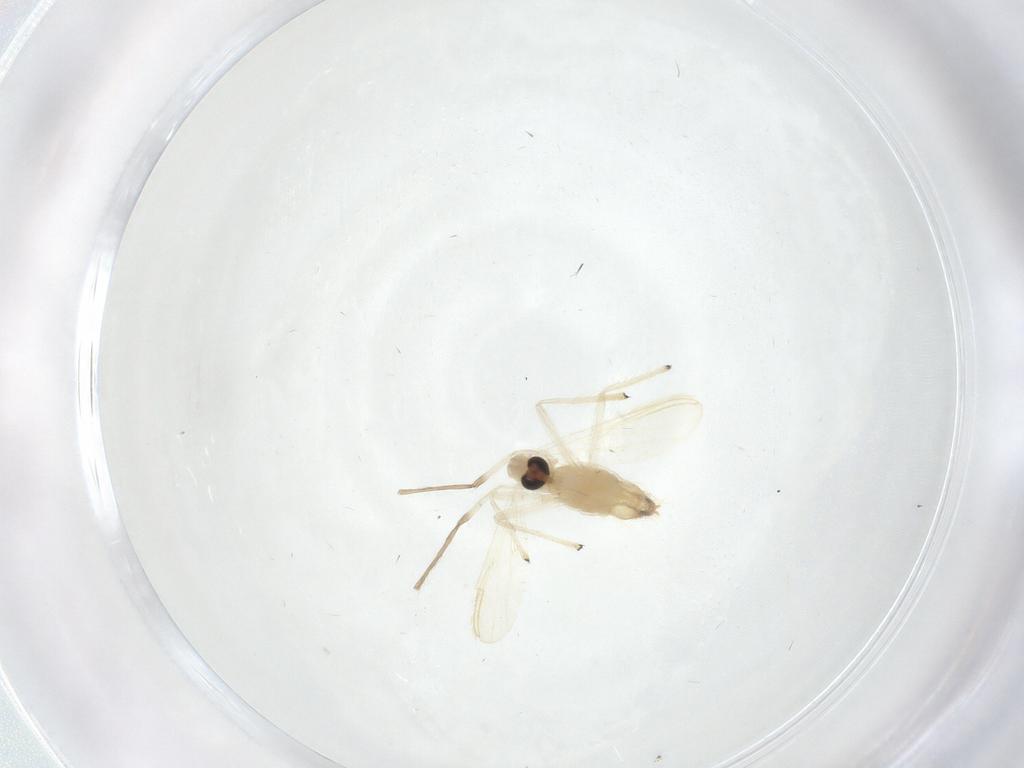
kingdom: Animalia
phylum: Arthropoda
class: Insecta
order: Diptera
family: Chironomidae
